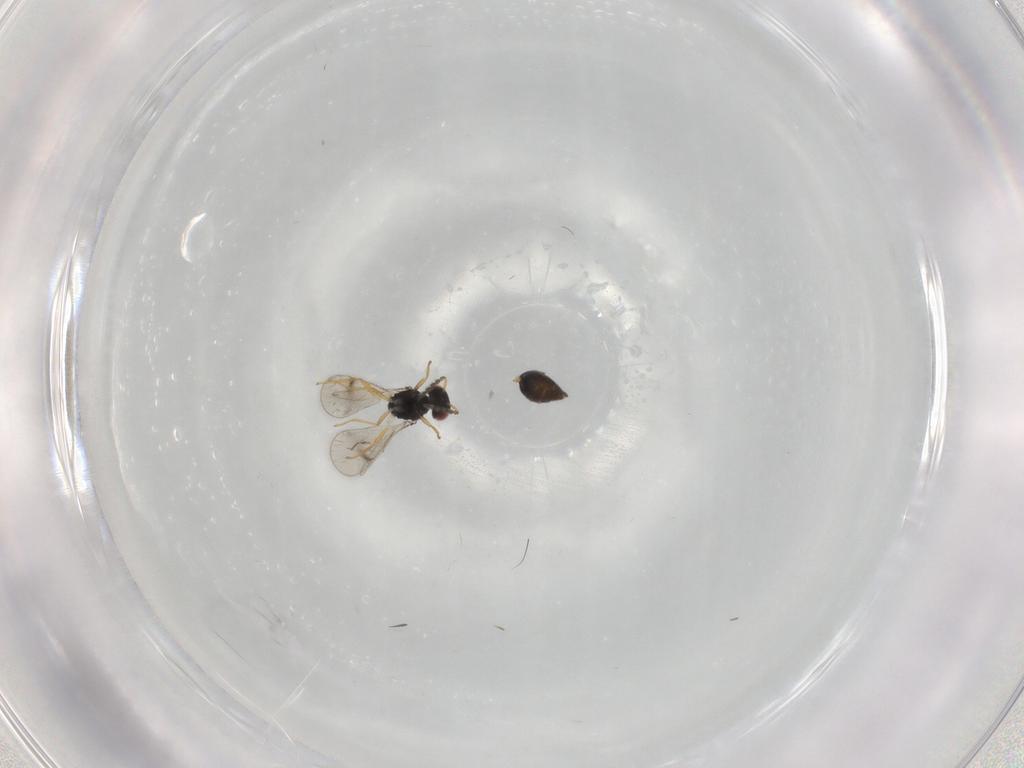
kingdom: Animalia
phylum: Arthropoda
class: Insecta
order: Hymenoptera
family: Eulophidae
